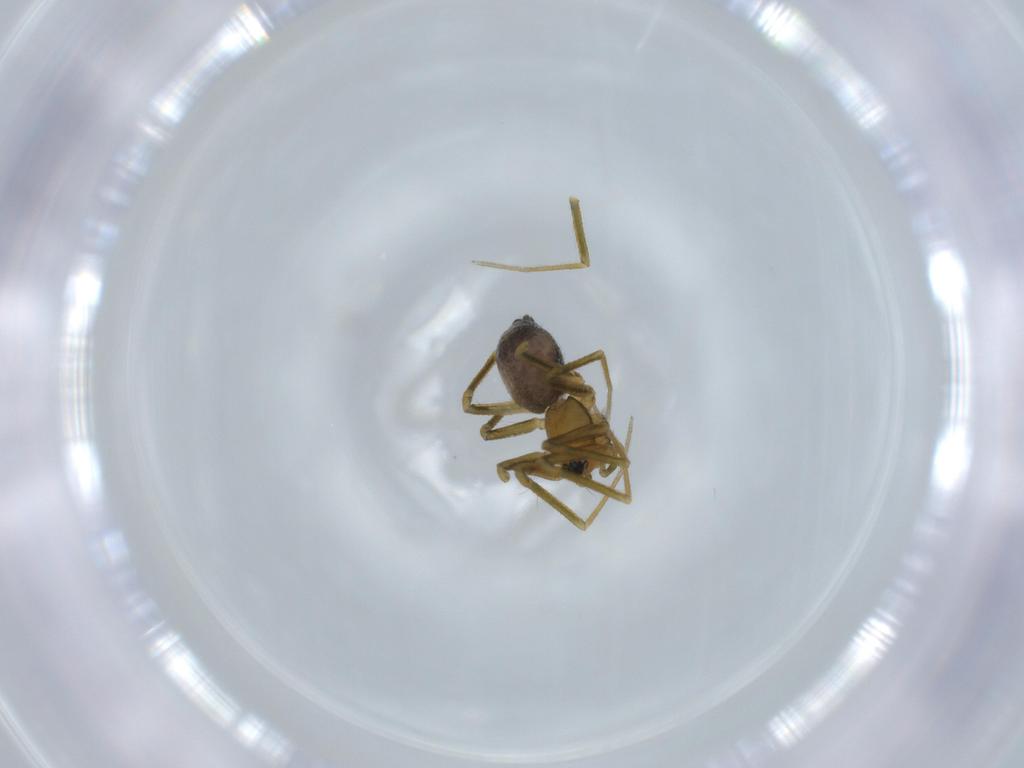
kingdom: Animalia
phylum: Arthropoda
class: Arachnida
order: Araneae
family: Linyphiidae
